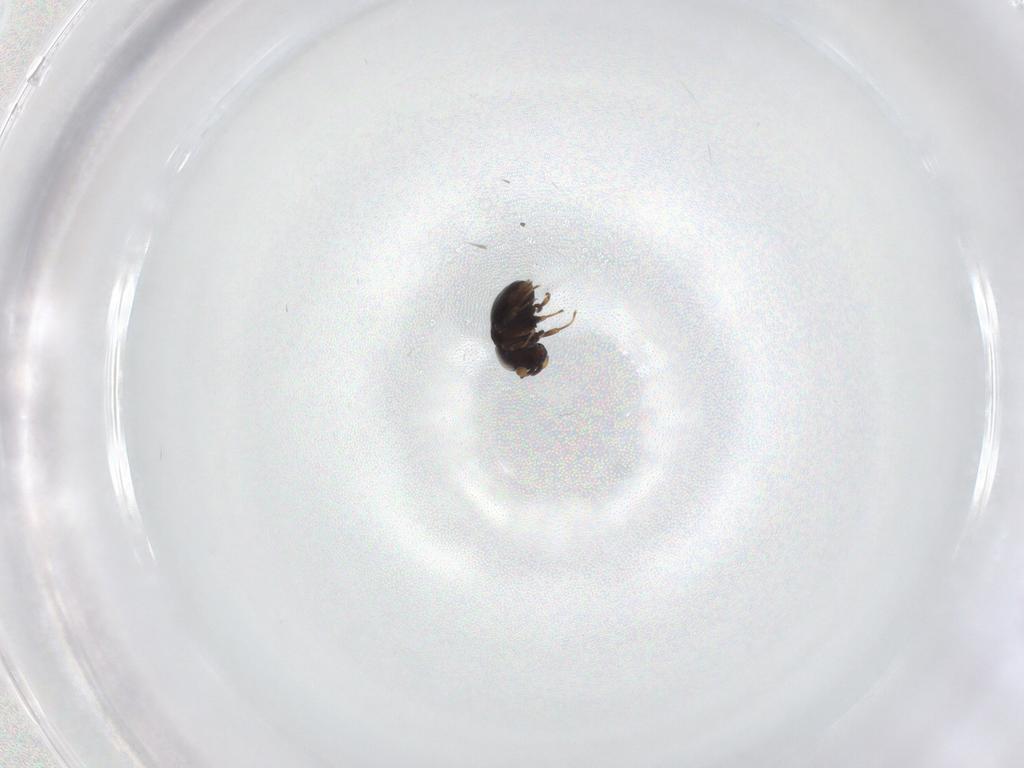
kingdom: Animalia
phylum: Arthropoda
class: Insecta
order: Hymenoptera
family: Scelionidae
